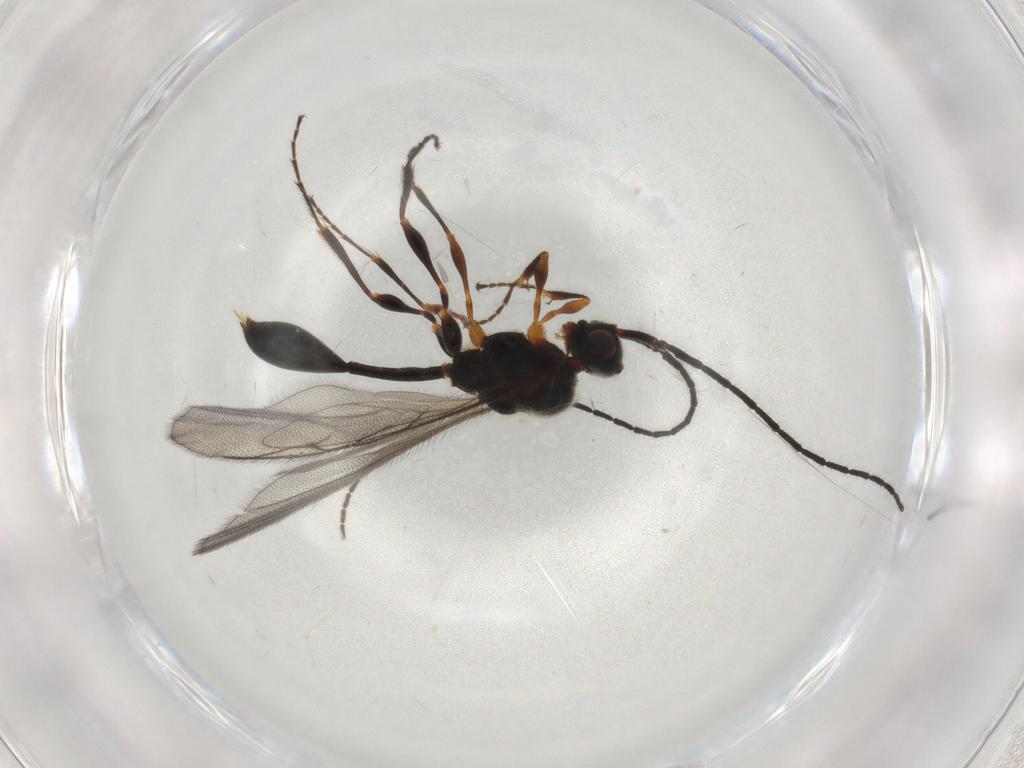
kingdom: Animalia
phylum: Arthropoda
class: Insecta
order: Hymenoptera
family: Diapriidae
